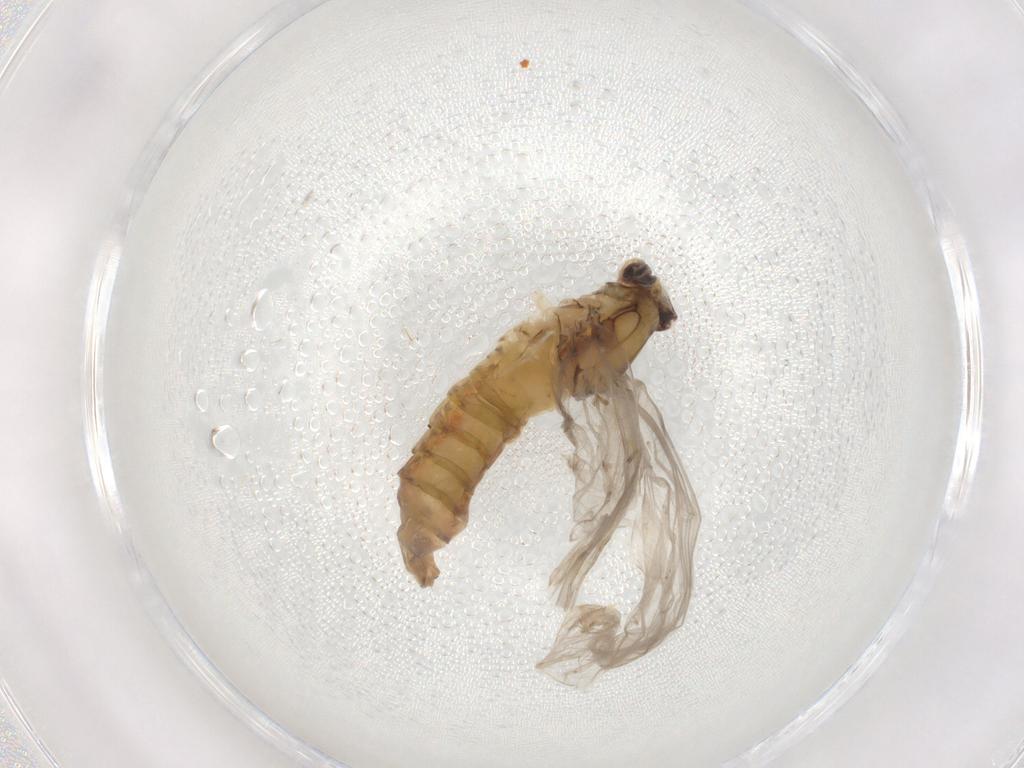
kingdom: Animalia
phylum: Arthropoda
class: Insecta
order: Ephemeroptera
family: Baetidae
